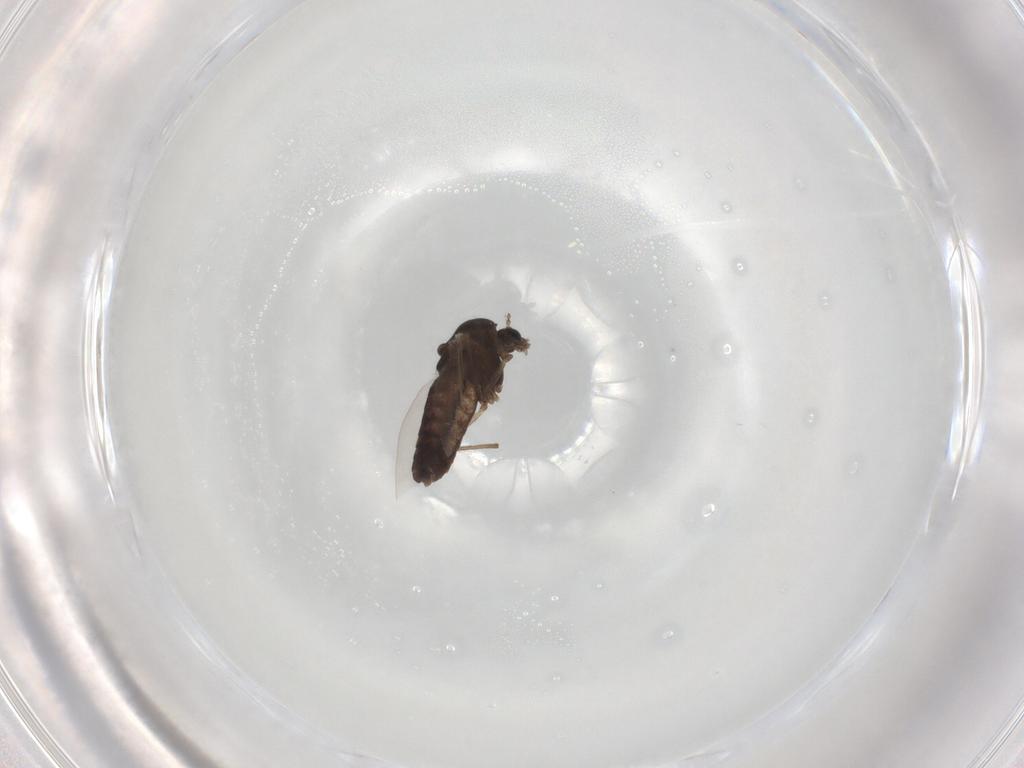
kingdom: Animalia
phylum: Arthropoda
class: Insecta
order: Diptera
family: Chironomidae
